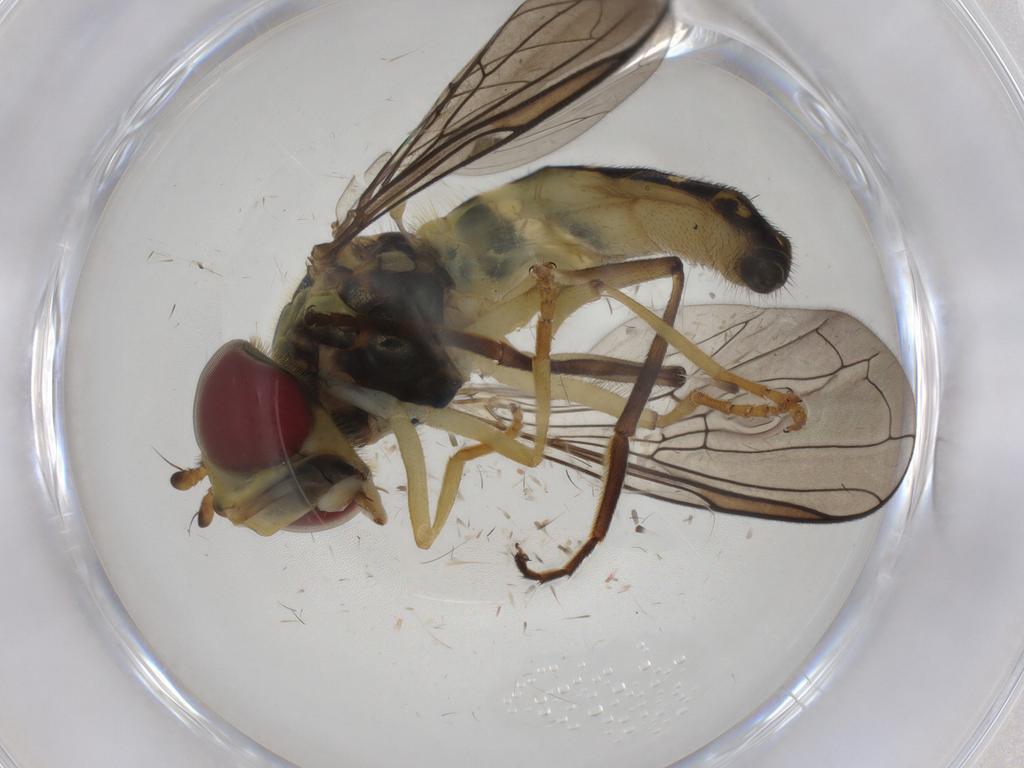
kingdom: Animalia
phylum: Arthropoda
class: Insecta
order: Diptera
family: Syrphidae
